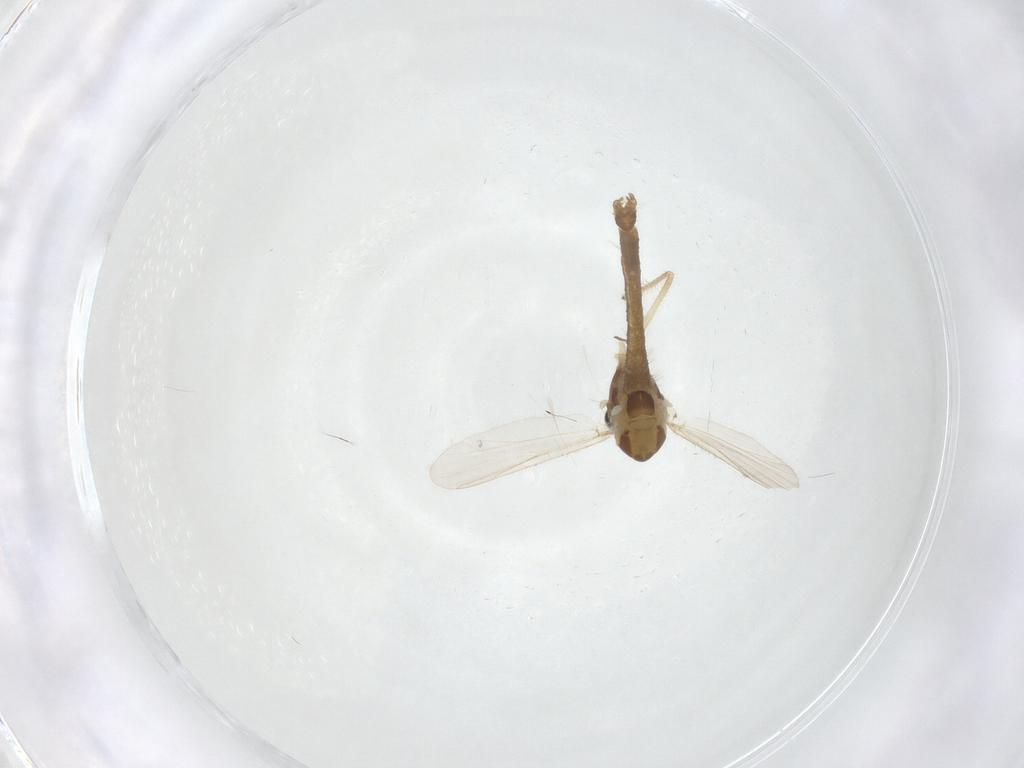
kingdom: Animalia
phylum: Arthropoda
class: Insecta
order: Diptera
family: Chironomidae
